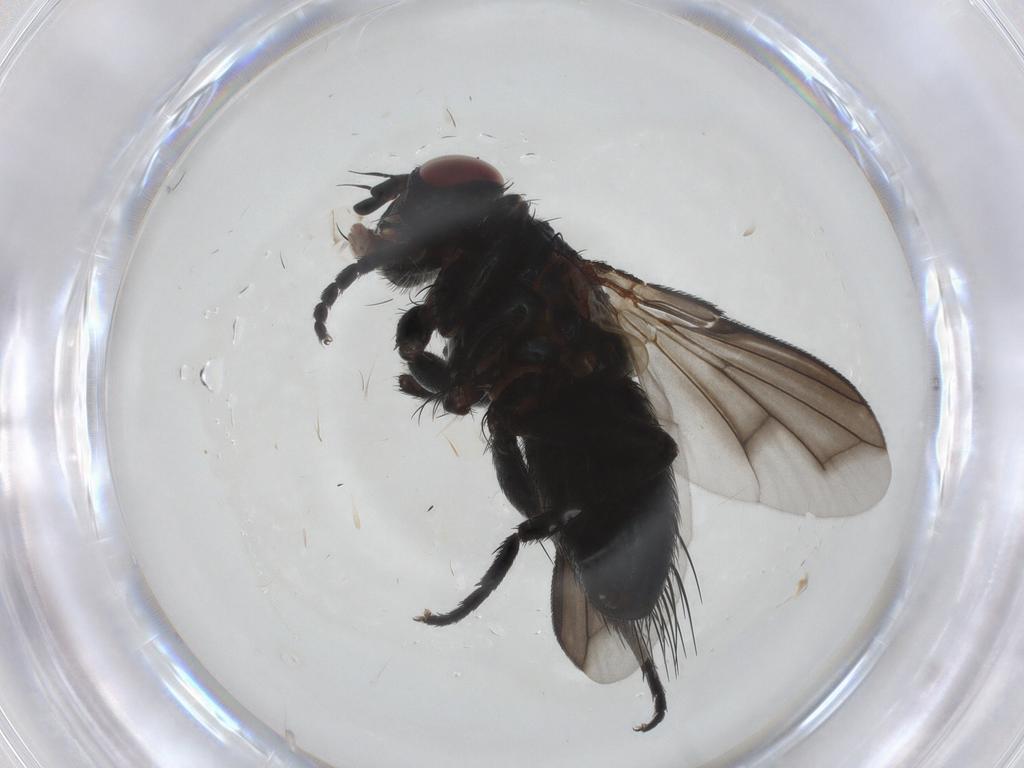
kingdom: Animalia
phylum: Arthropoda
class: Insecta
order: Diptera
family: Tachinidae
